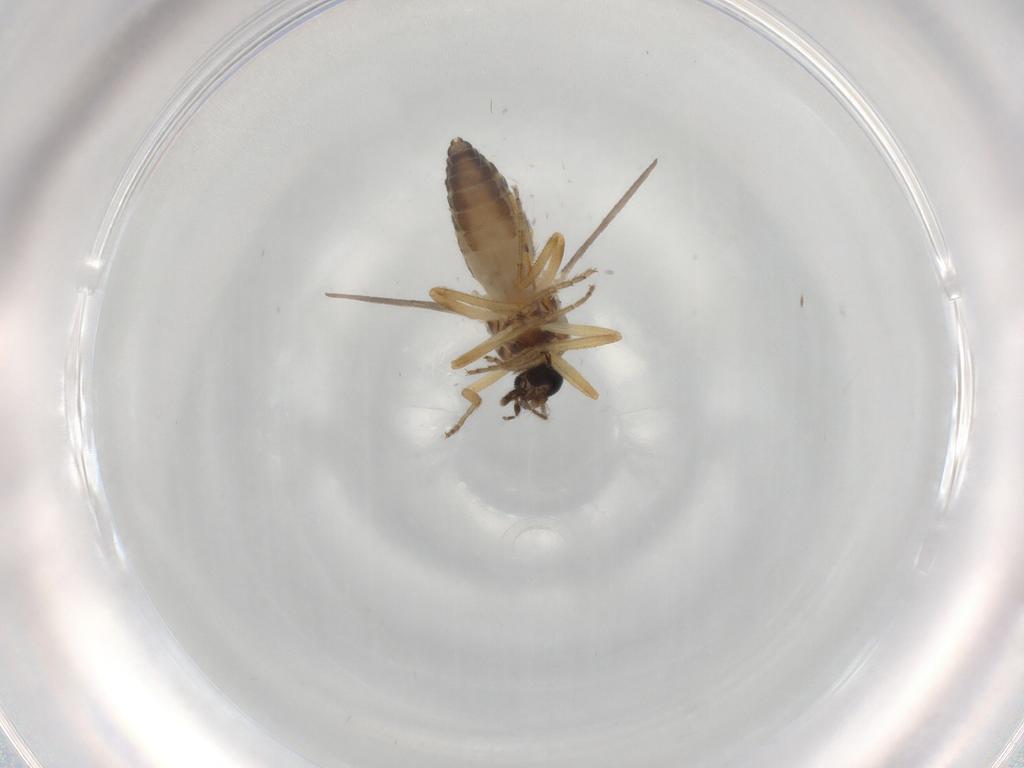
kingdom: Animalia
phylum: Arthropoda
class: Insecta
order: Diptera
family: Ceratopogonidae
